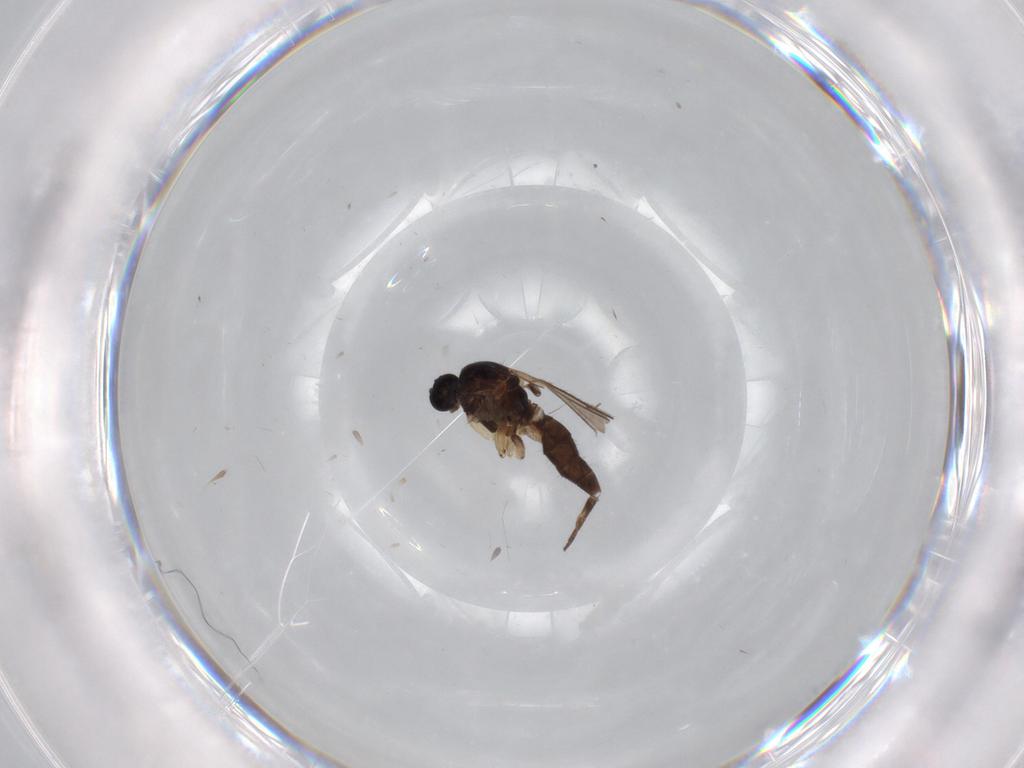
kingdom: Animalia
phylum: Arthropoda
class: Insecta
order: Diptera
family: Sciaridae
